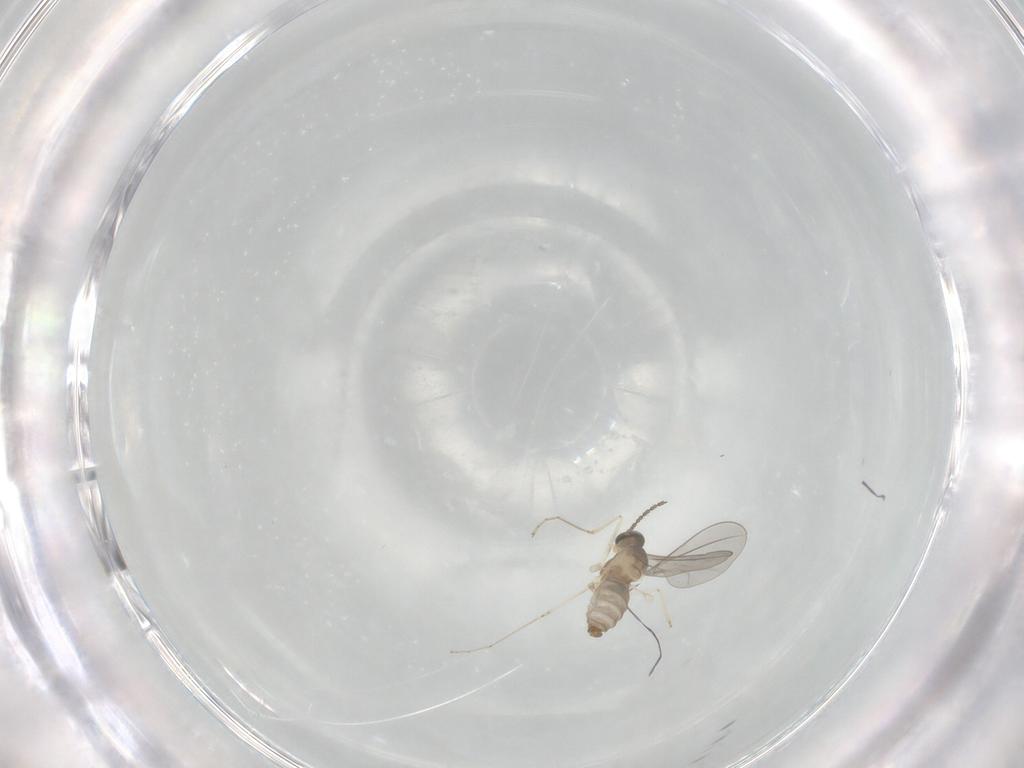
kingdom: Animalia
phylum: Arthropoda
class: Insecta
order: Diptera
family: Cecidomyiidae
